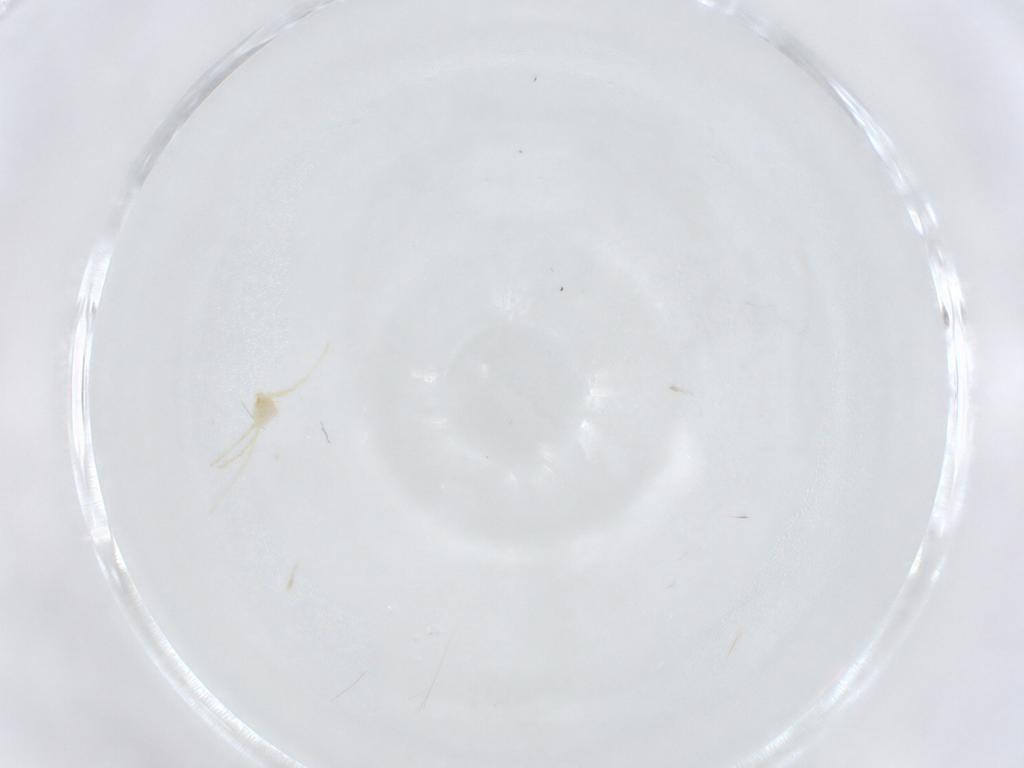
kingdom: Animalia
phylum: Arthropoda
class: Arachnida
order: Trombidiformes
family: Erythraeidae
